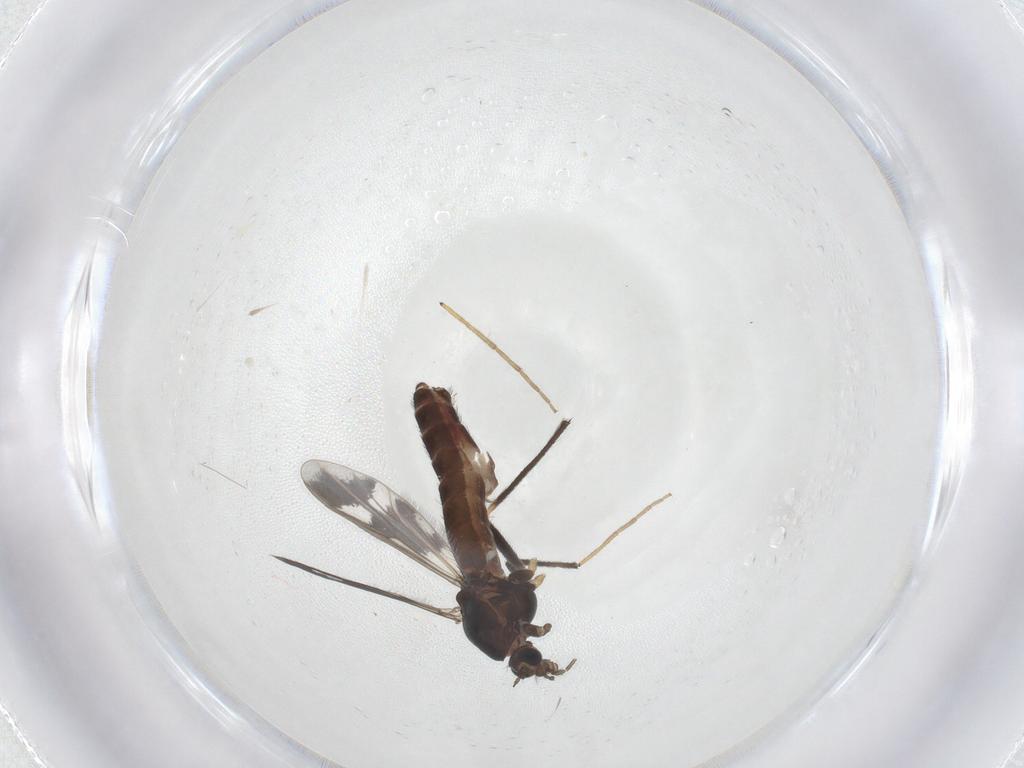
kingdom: Animalia
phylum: Arthropoda
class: Insecta
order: Diptera
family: Chironomidae
